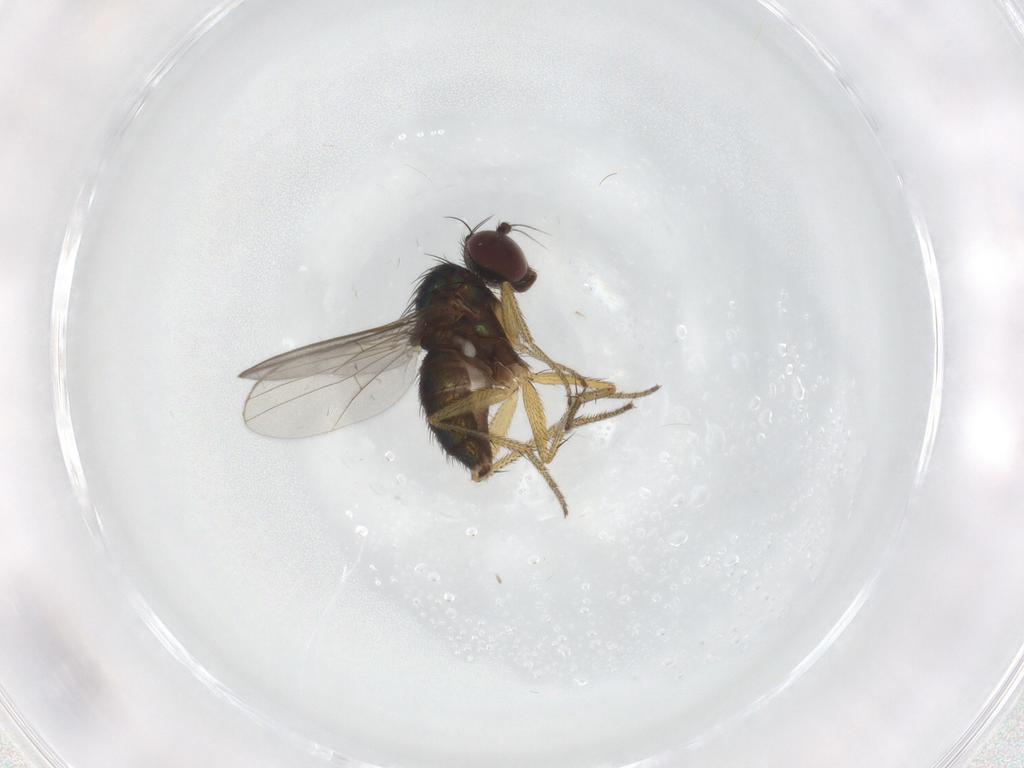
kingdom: Animalia
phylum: Arthropoda
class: Insecta
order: Diptera
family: Dolichopodidae
